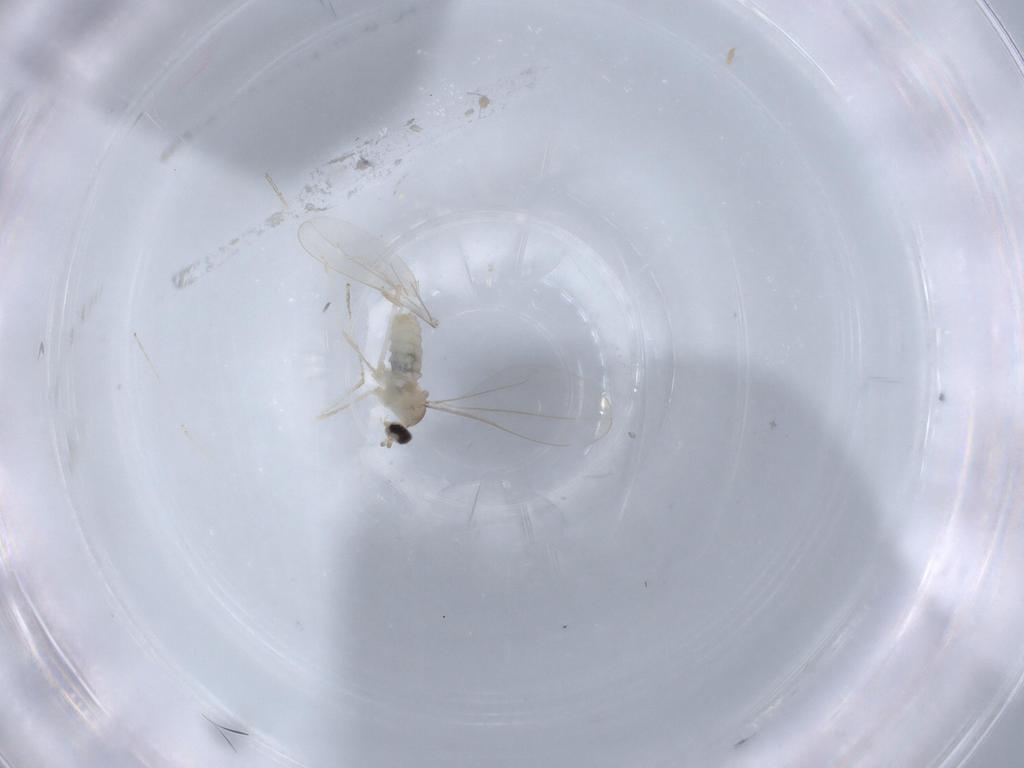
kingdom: Animalia
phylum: Arthropoda
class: Insecta
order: Diptera
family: Cecidomyiidae
